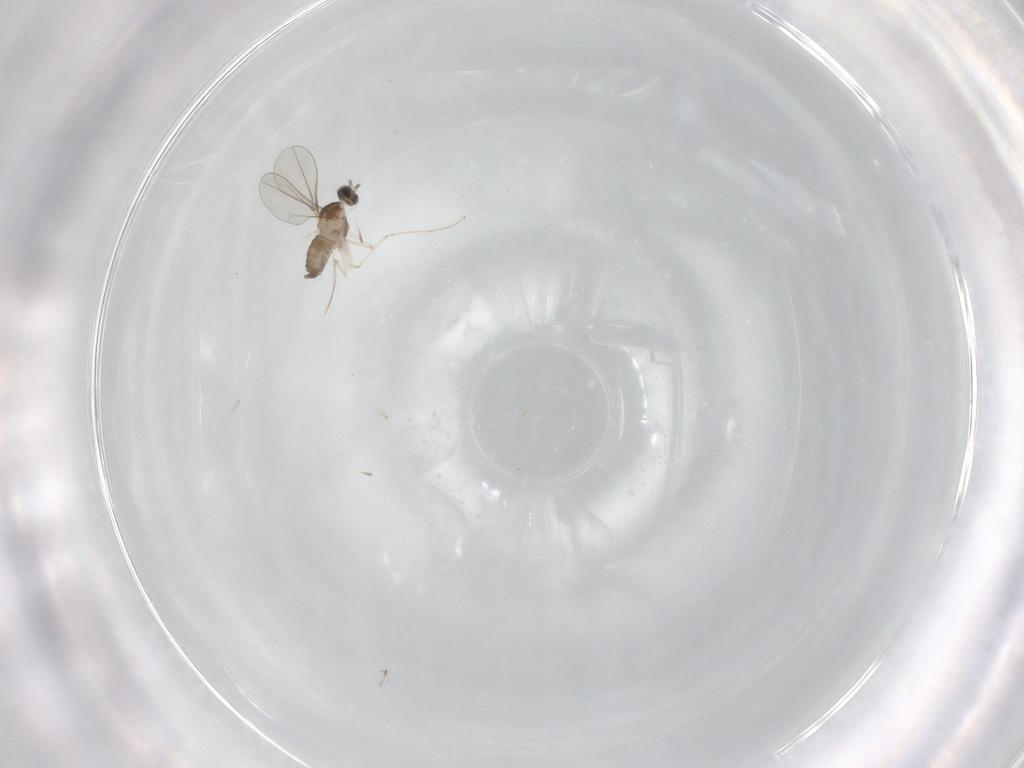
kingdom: Animalia
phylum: Arthropoda
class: Insecta
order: Diptera
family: Cecidomyiidae
